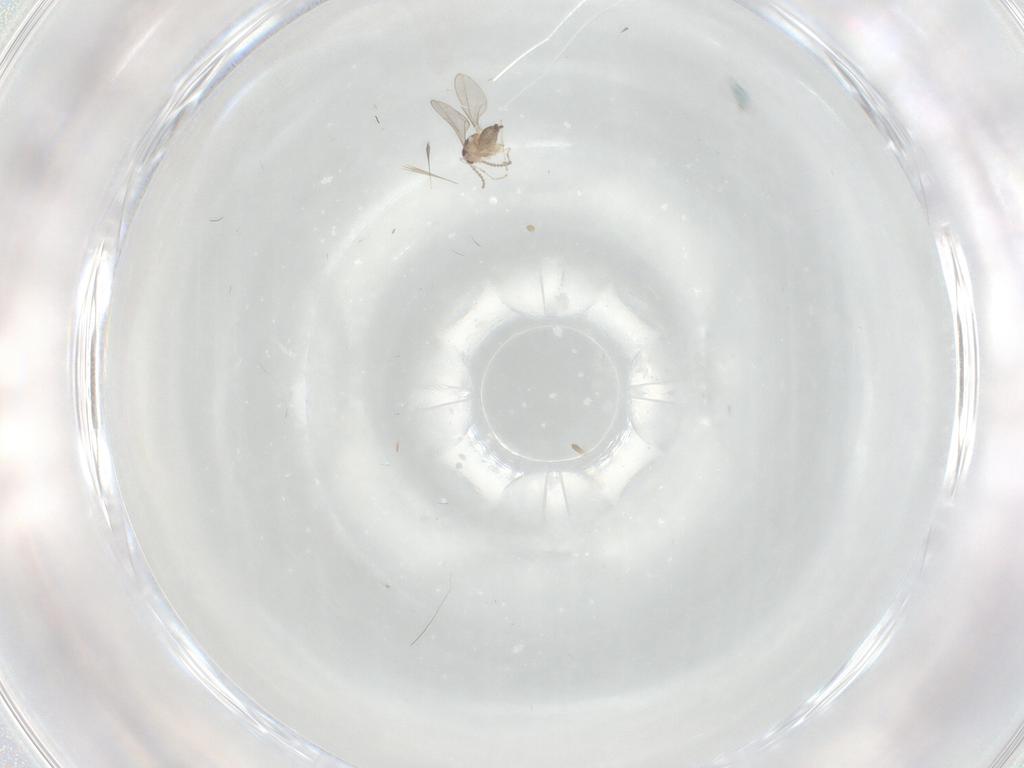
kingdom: Animalia
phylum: Arthropoda
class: Insecta
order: Diptera
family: Cecidomyiidae
